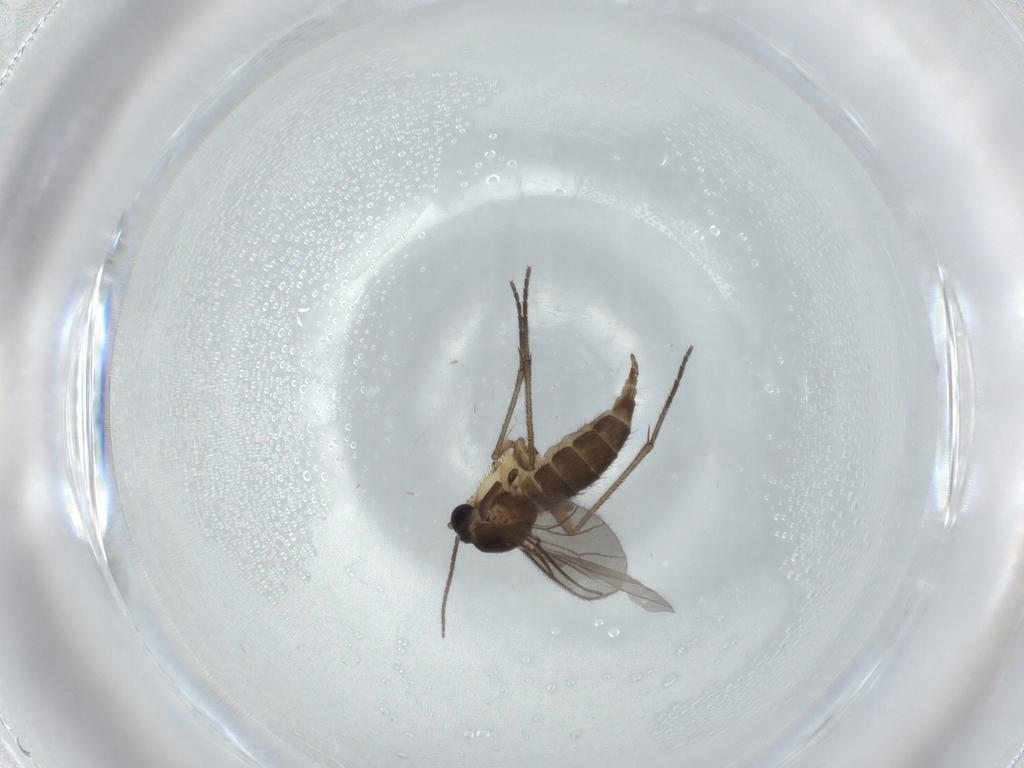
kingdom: Animalia
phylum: Arthropoda
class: Insecta
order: Diptera
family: Sciaridae
